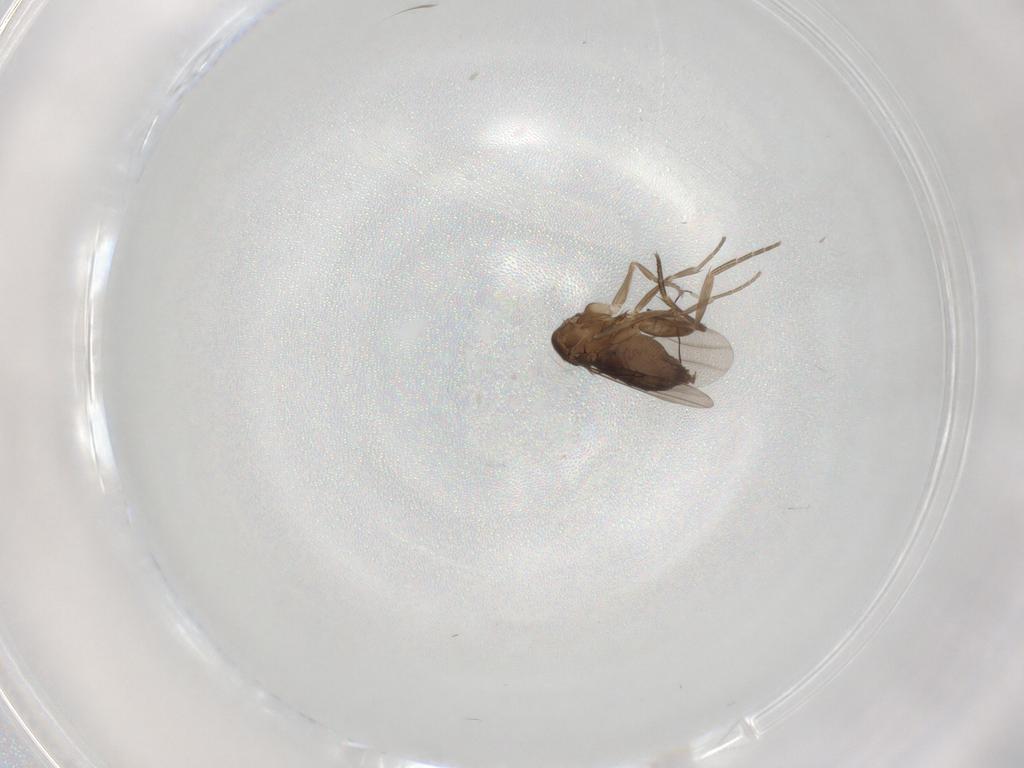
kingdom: Animalia
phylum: Arthropoda
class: Insecta
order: Diptera
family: Phoridae
